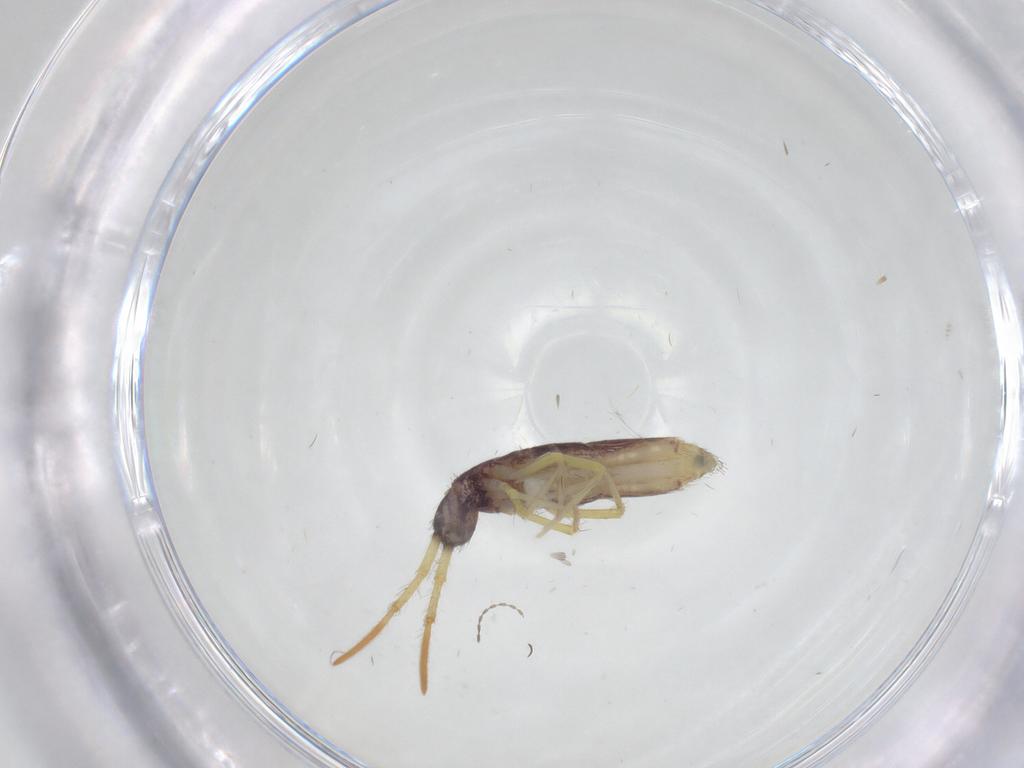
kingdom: Animalia
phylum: Arthropoda
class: Collembola
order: Entomobryomorpha
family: Entomobryidae
